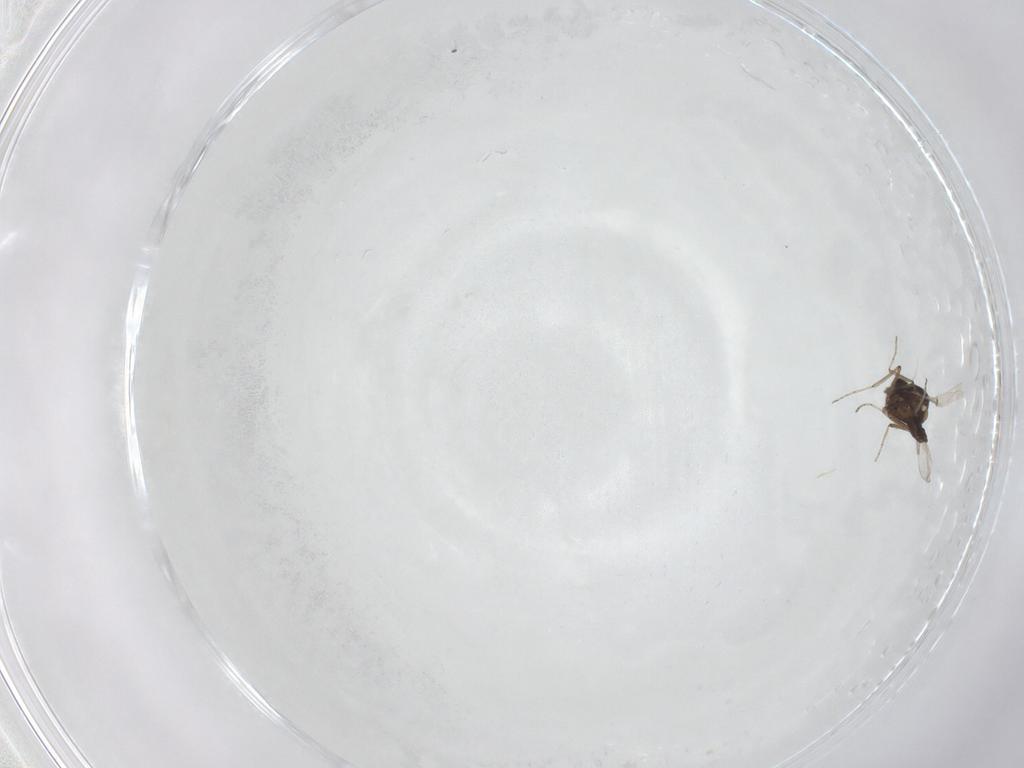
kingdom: Animalia
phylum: Arthropoda
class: Insecta
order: Diptera
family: Ceratopogonidae
